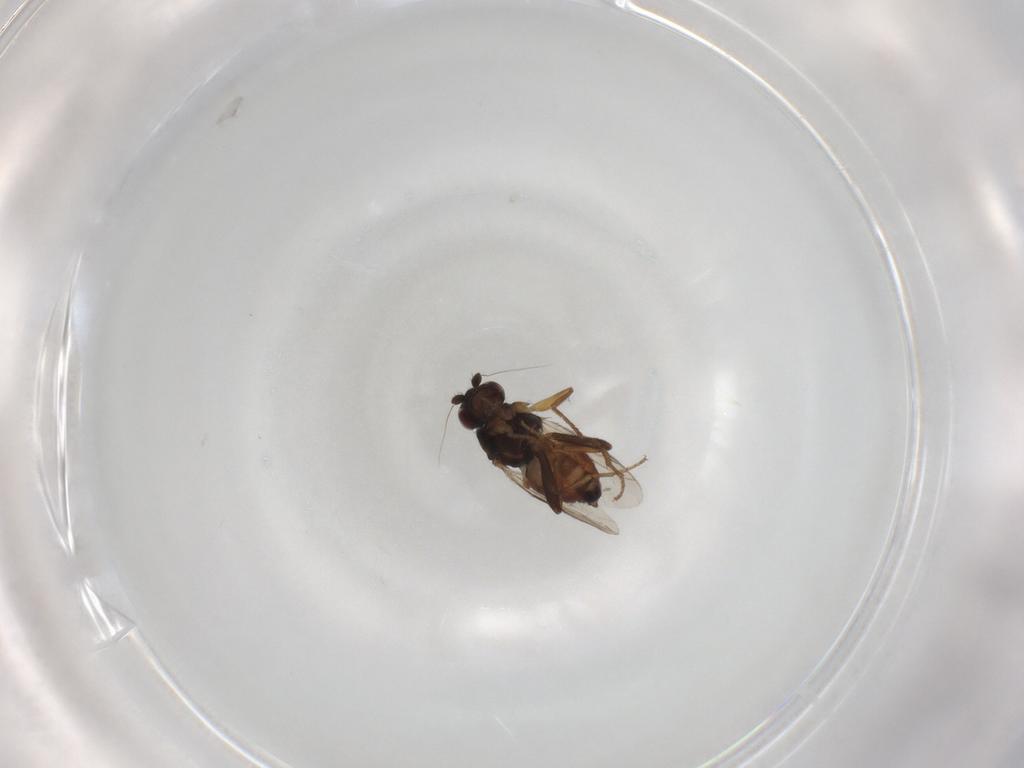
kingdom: Animalia
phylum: Arthropoda
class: Insecta
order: Diptera
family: Sphaeroceridae
